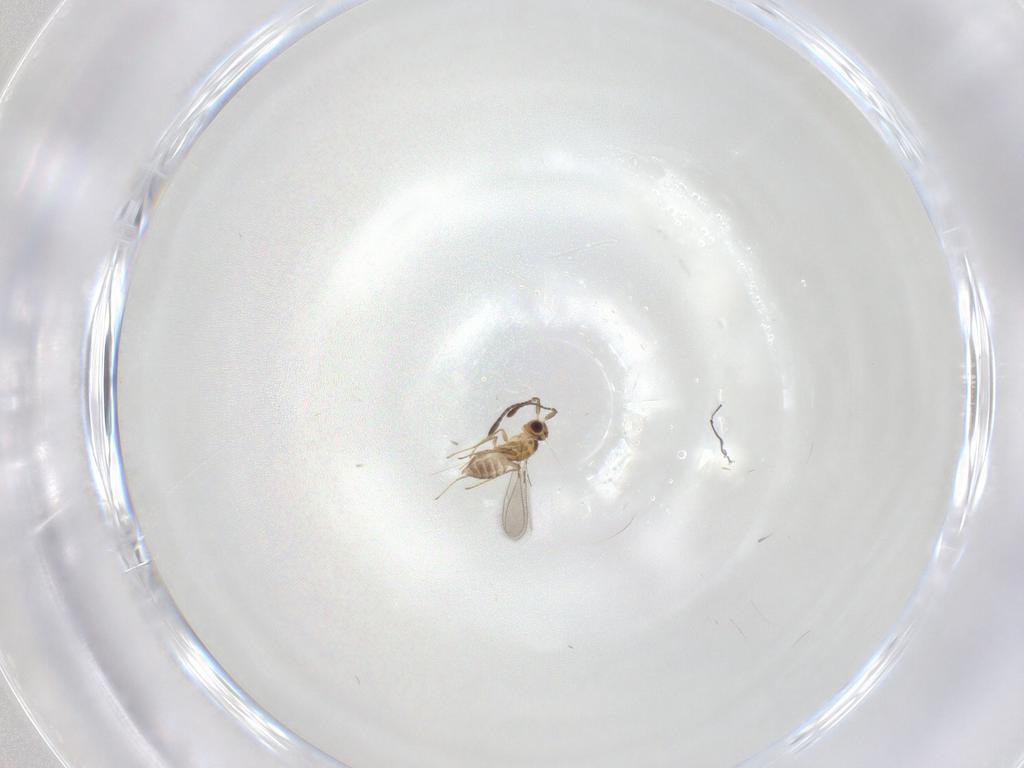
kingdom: Animalia
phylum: Arthropoda
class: Insecta
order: Hymenoptera
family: Mymaridae
